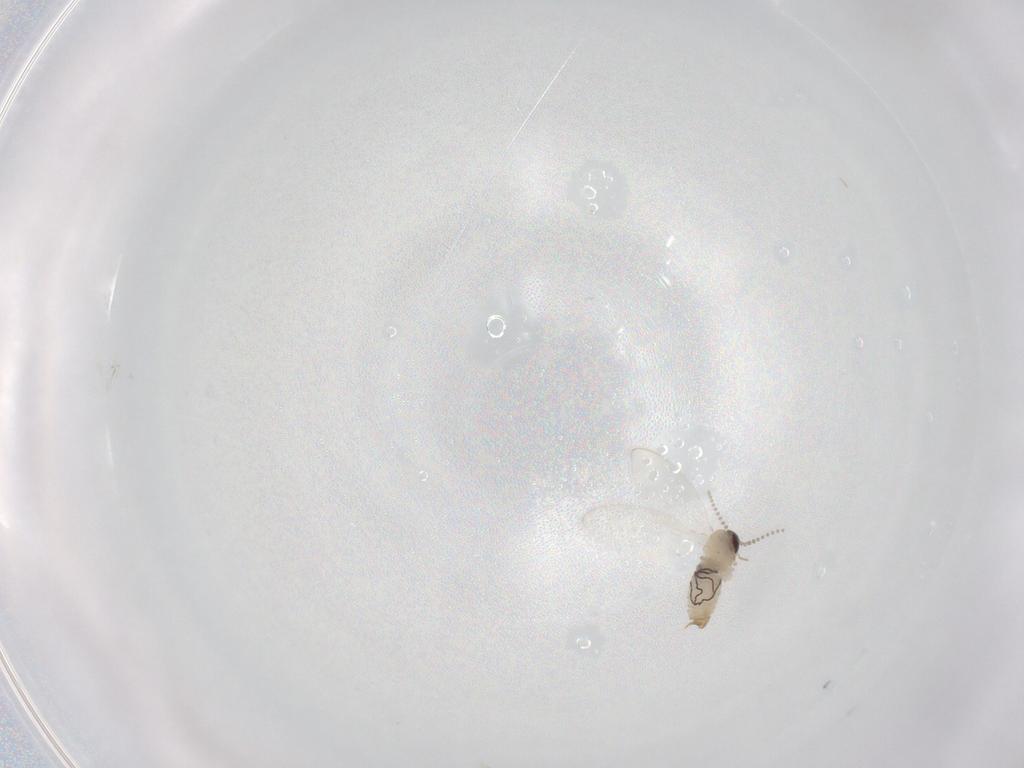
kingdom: Animalia
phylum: Arthropoda
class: Insecta
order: Diptera
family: Ceratopogonidae
